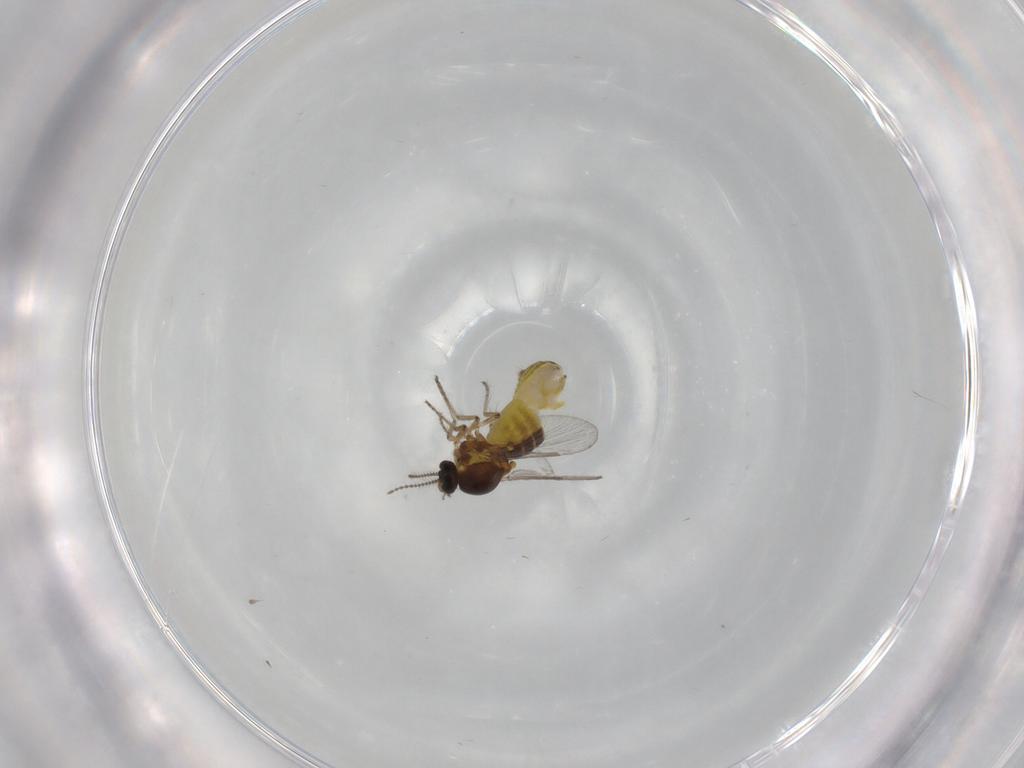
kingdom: Animalia
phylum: Arthropoda
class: Insecta
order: Diptera
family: Ceratopogonidae
